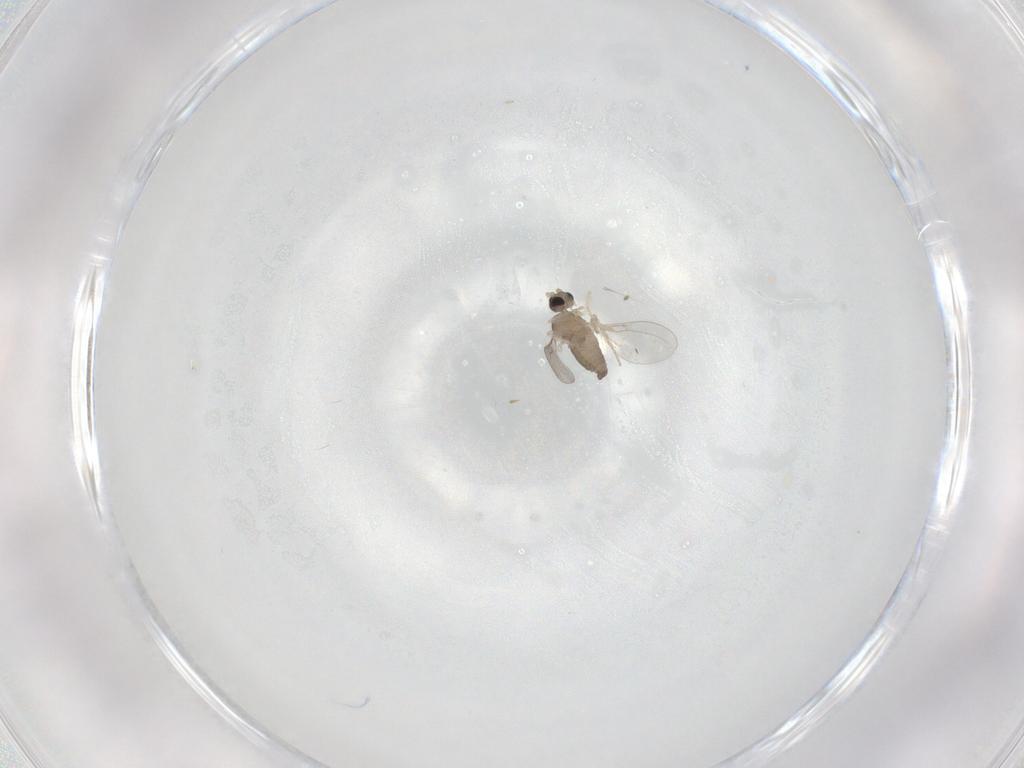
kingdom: Animalia
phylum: Arthropoda
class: Insecta
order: Diptera
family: Cecidomyiidae
